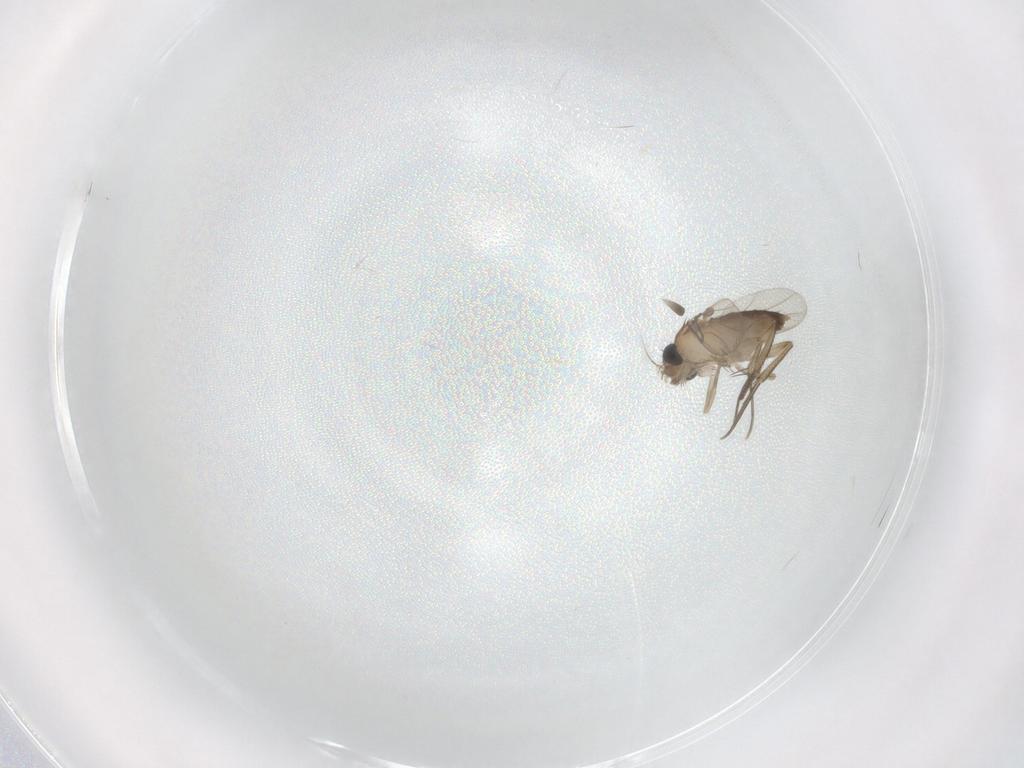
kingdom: Animalia
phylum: Arthropoda
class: Insecta
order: Diptera
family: Phoridae
